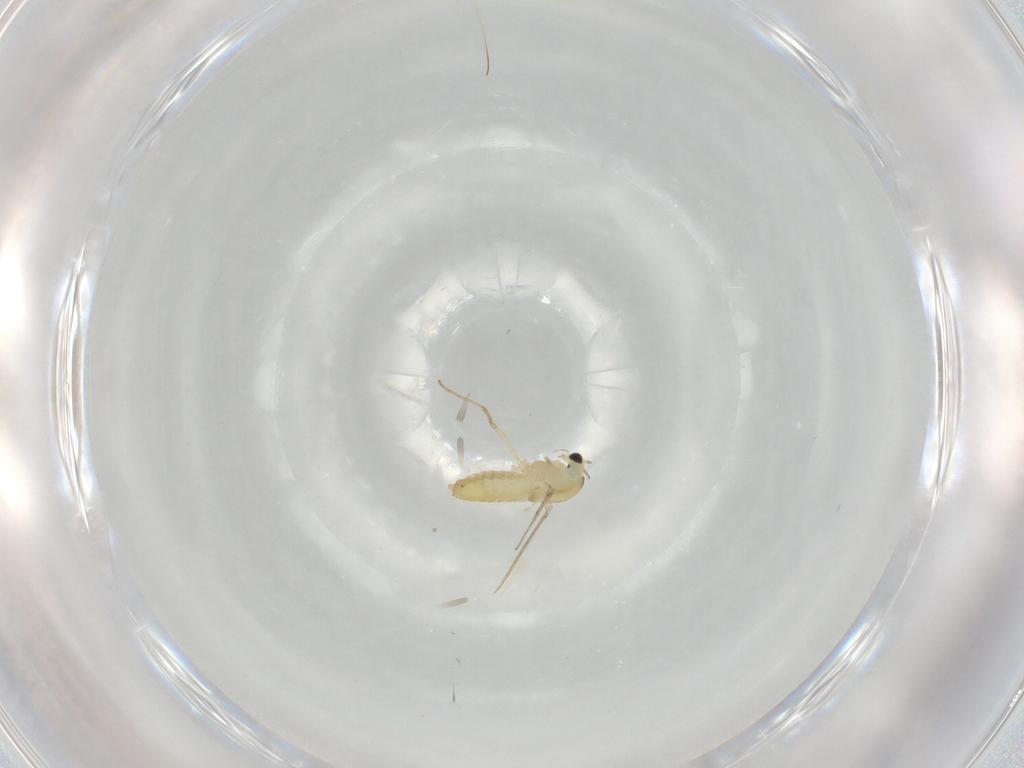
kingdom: Animalia
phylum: Arthropoda
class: Insecta
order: Diptera
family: Chironomidae
